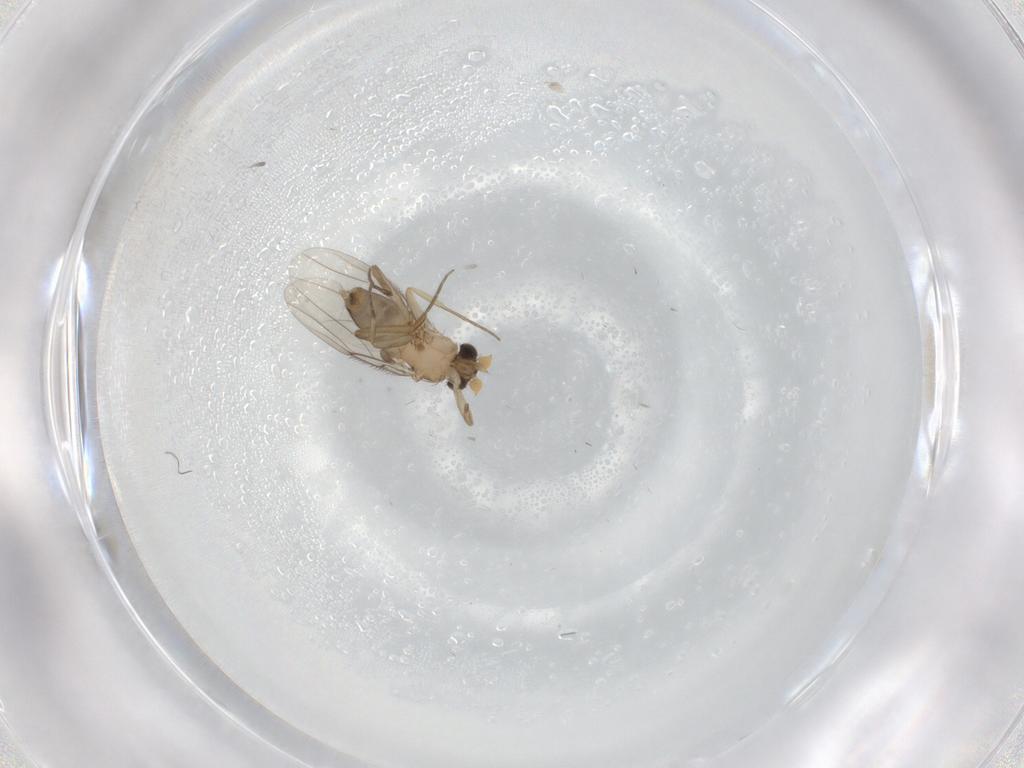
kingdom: Animalia
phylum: Arthropoda
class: Insecta
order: Diptera
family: Phoridae
